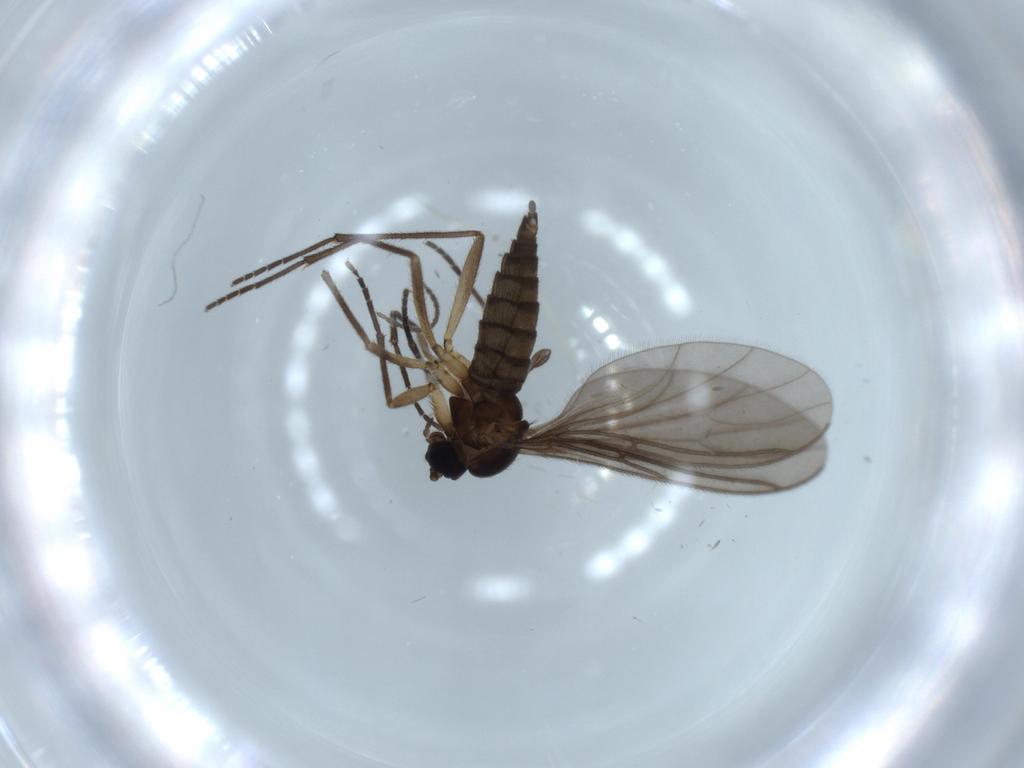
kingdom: Animalia
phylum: Arthropoda
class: Insecta
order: Diptera
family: Sciaridae
